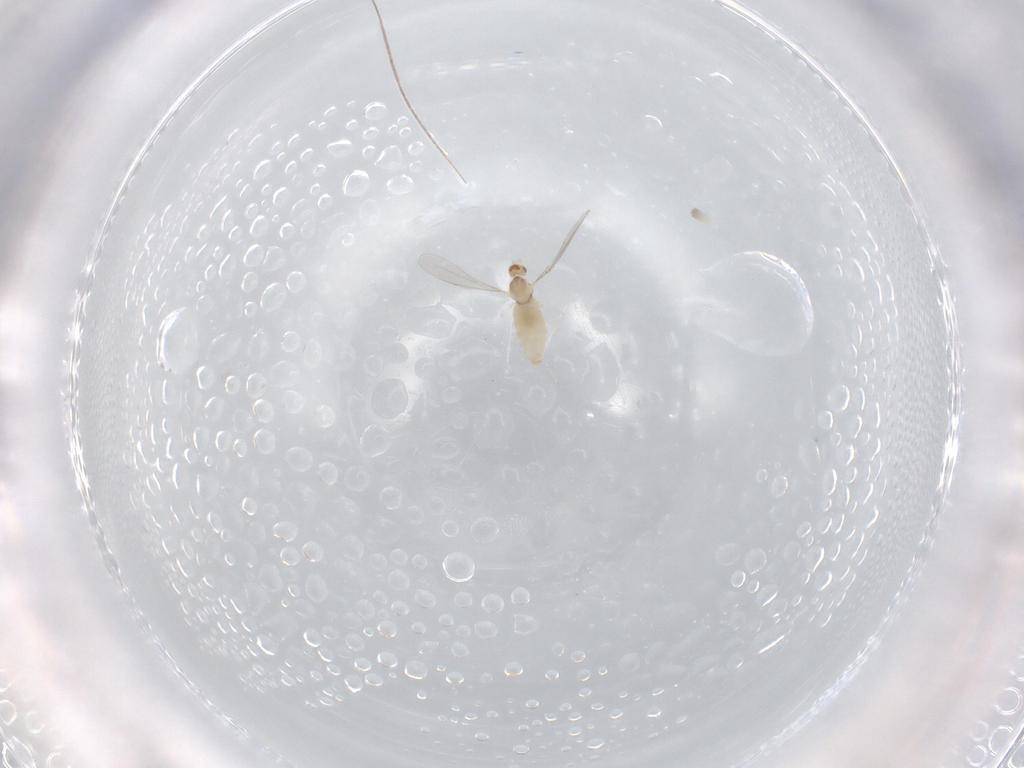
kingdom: Animalia
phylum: Arthropoda
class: Insecta
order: Diptera
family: Cecidomyiidae
